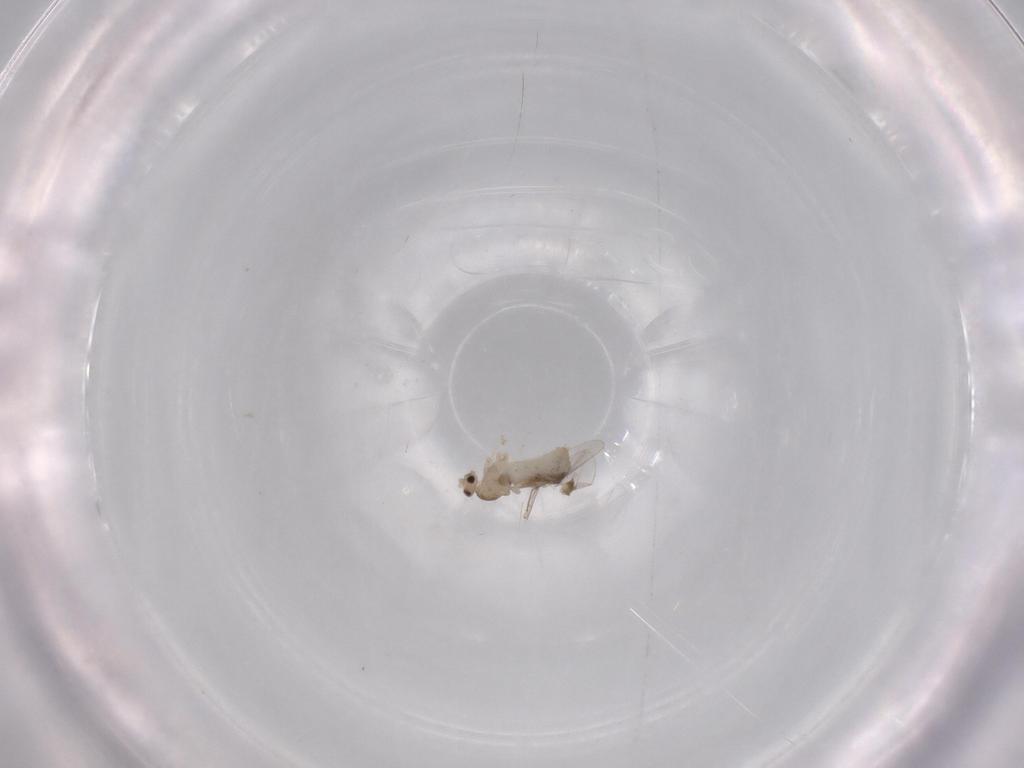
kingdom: Animalia
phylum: Arthropoda
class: Insecta
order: Diptera
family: Cecidomyiidae
